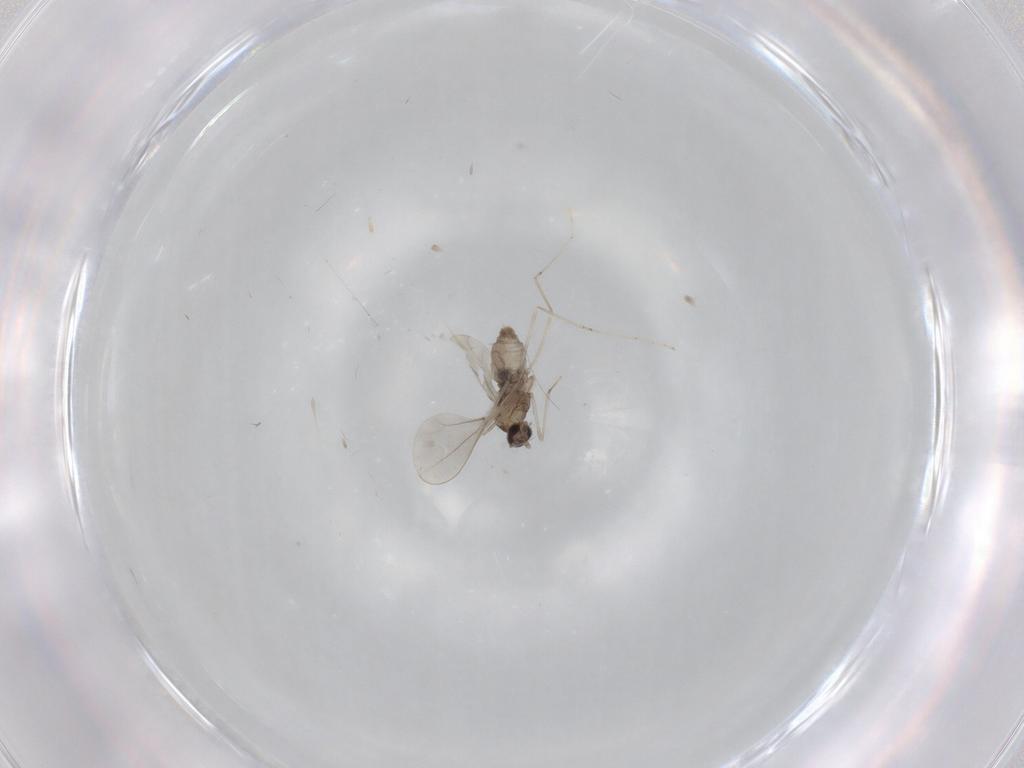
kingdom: Animalia
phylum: Arthropoda
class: Insecta
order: Diptera
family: Cecidomyiidae
